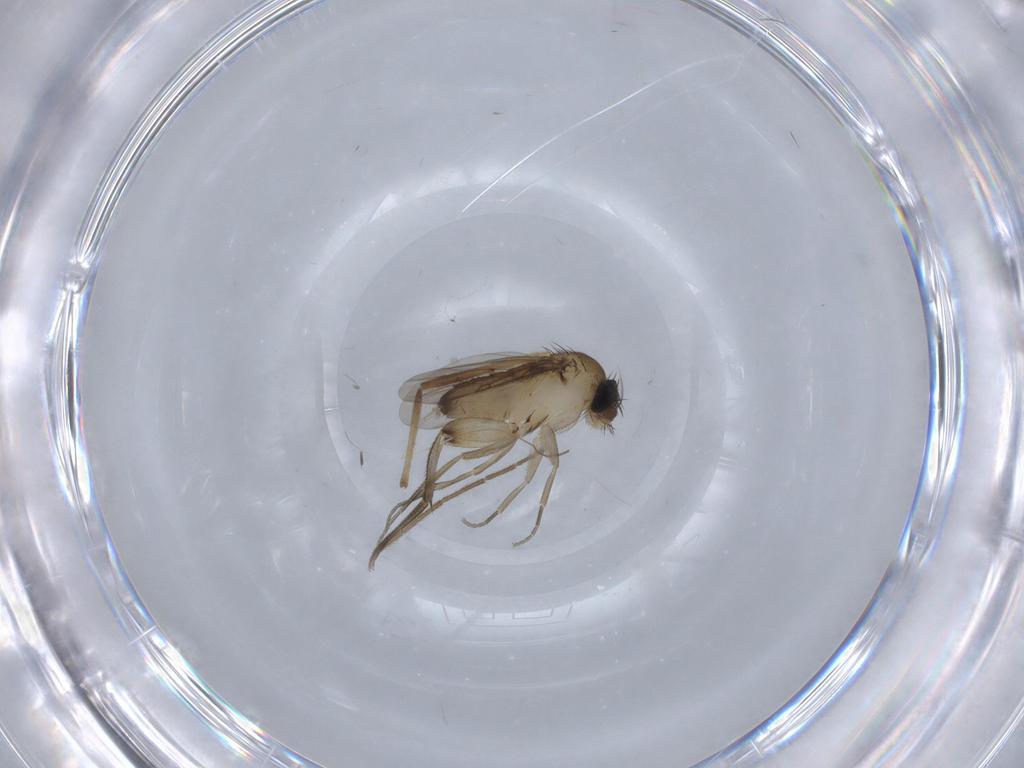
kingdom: Animalia
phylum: Arthropoda
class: Insecta
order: Diptera
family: Phoridae
